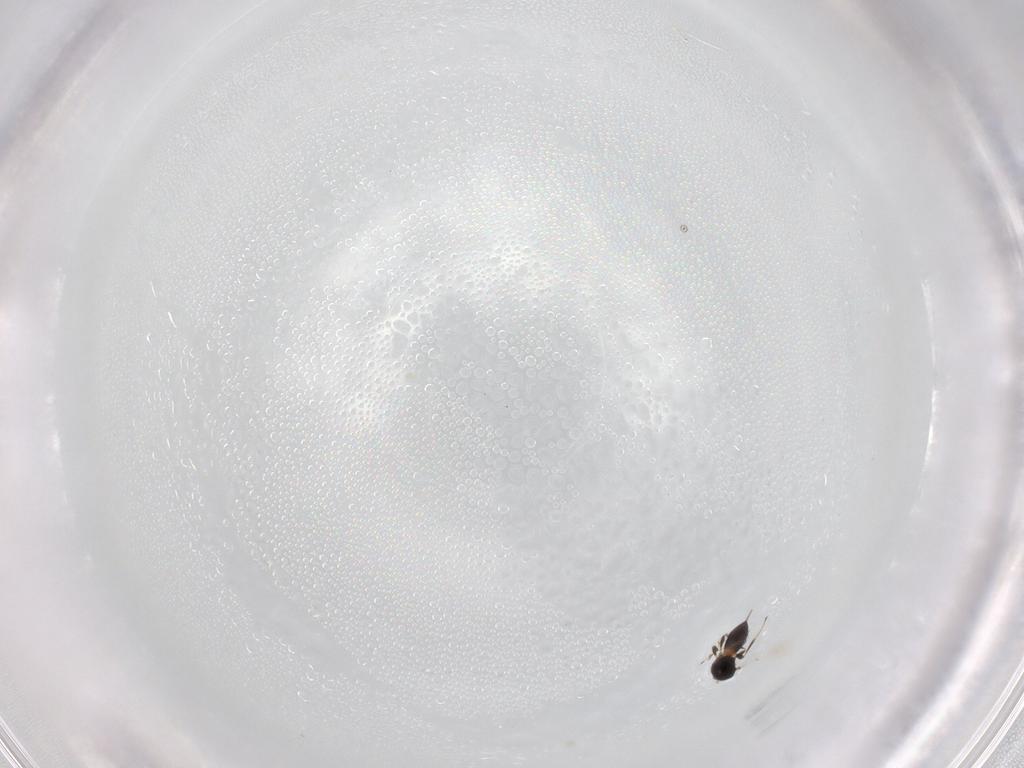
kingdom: Animalia
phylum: Arthropoda
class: Insecta
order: Hymenoptera
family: Platygastridae
